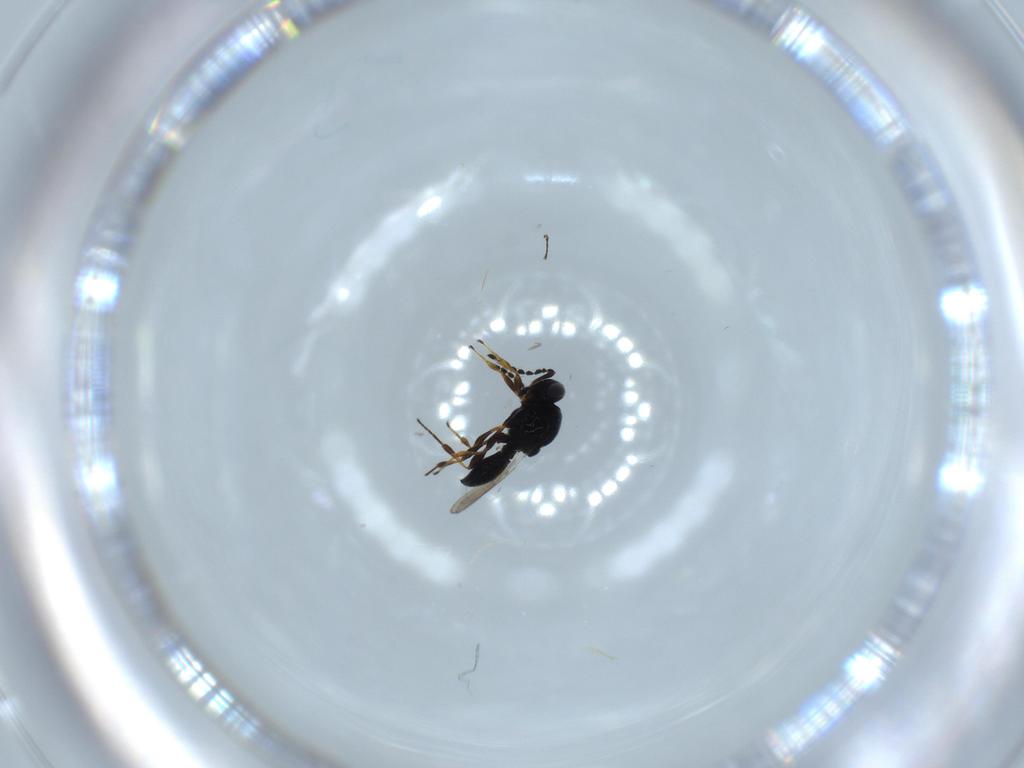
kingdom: Animalia
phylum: Arthropoda
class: Insecta
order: Hymenoptera
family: Platygastridae
